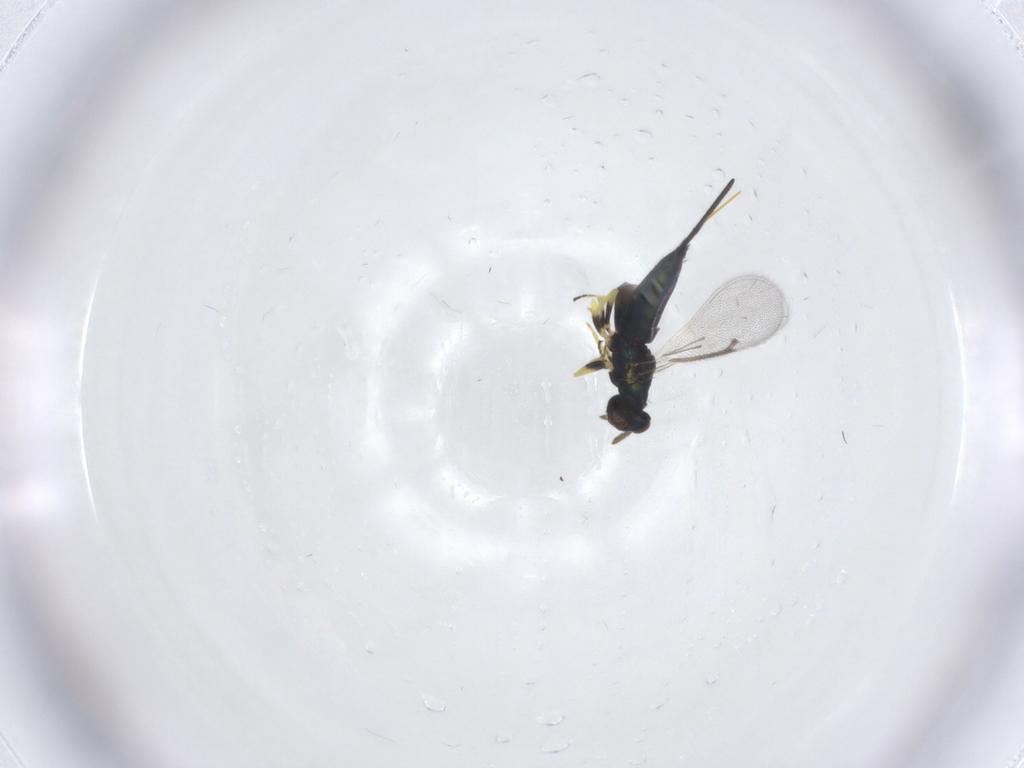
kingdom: Animalia
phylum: Arthropoda
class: Insecta
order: Hymenoptera
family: Eulophidae
